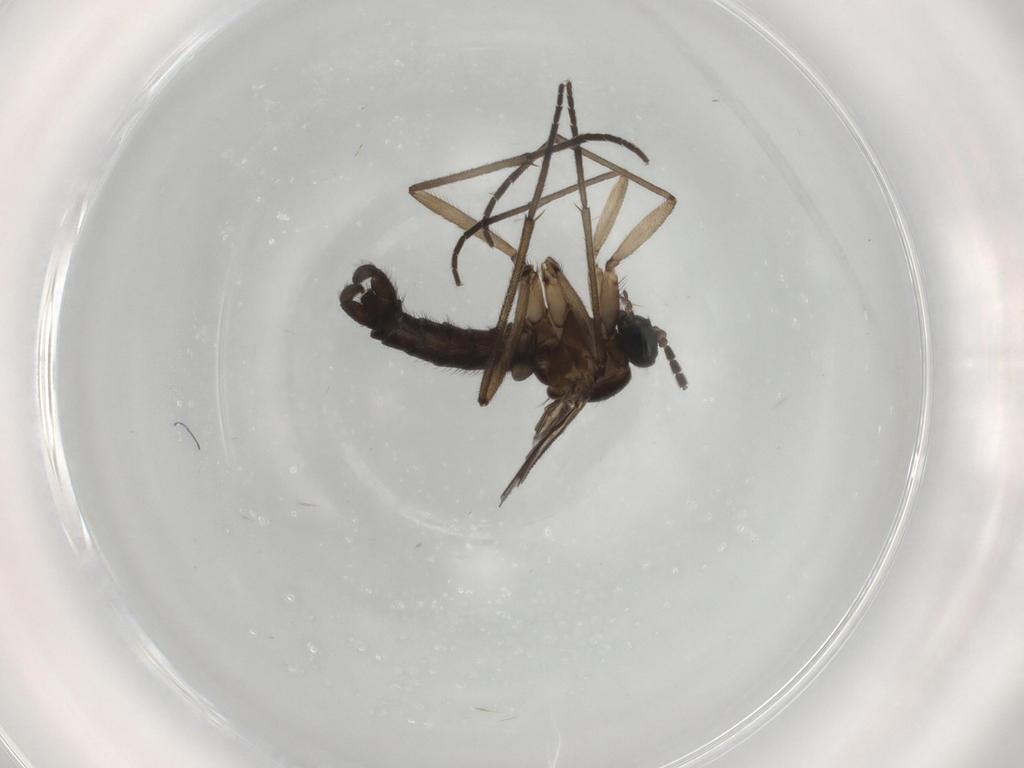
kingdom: Animalia
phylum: Arthropoda
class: Insecta
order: Diptera
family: Sciaridae
